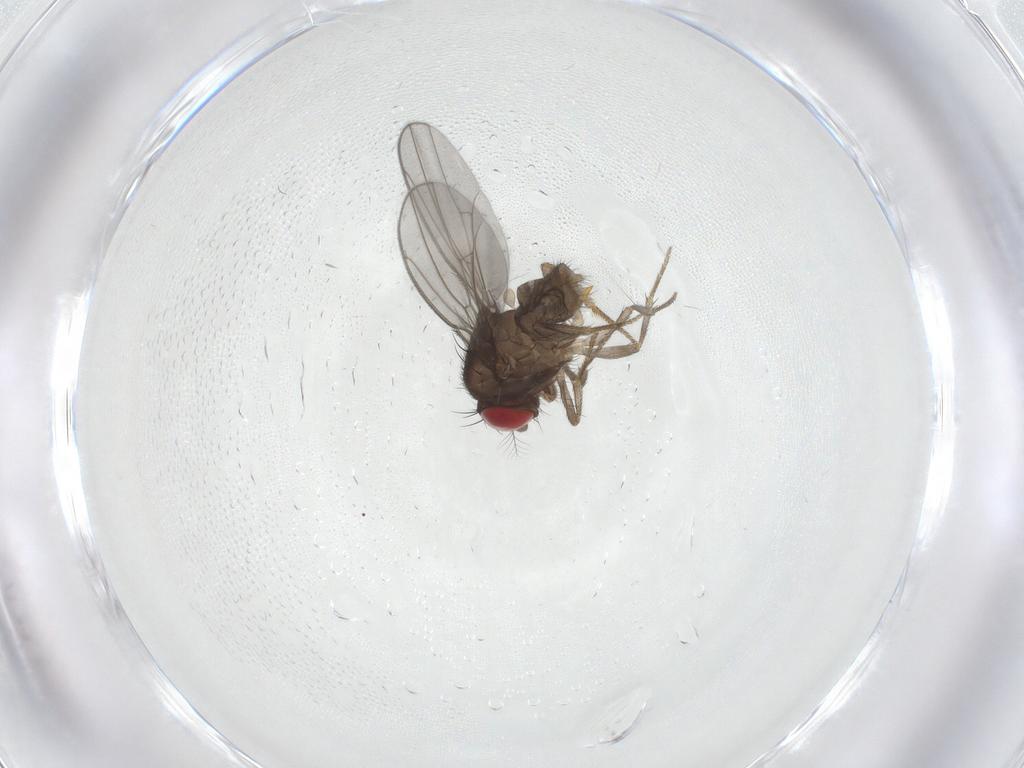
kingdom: Animalia
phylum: Arthropoda
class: Insecta
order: Diptera
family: Drosophilidae
